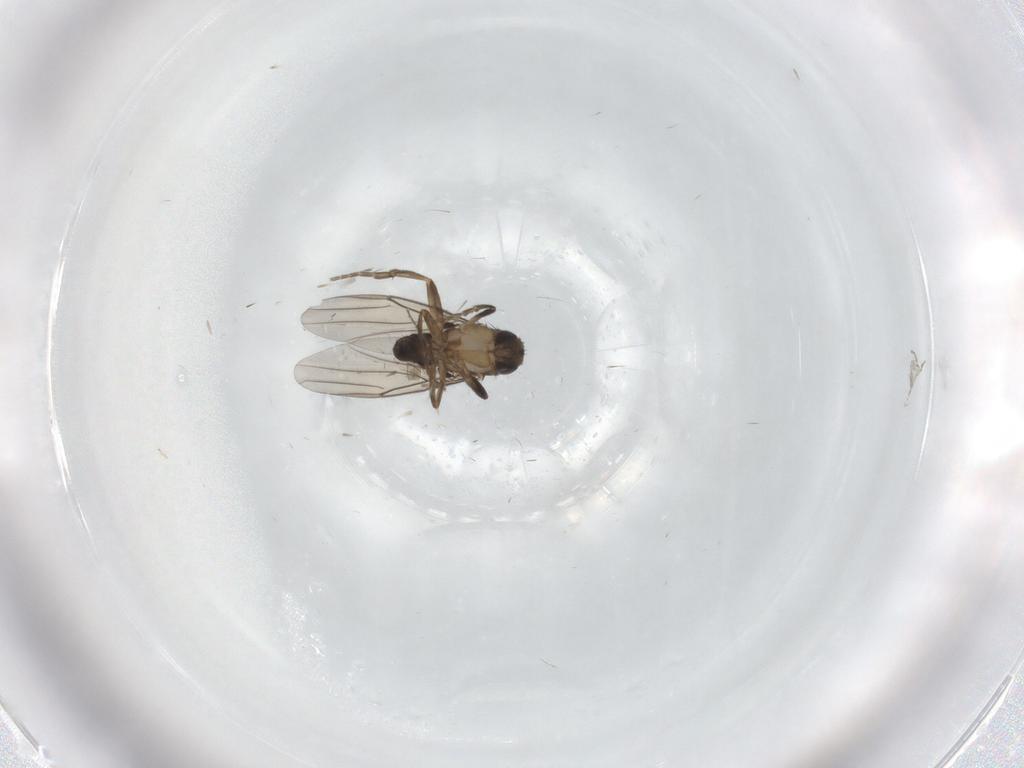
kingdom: Animalia
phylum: Arthropoda
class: Insecta
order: Diptera
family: Phoridae
